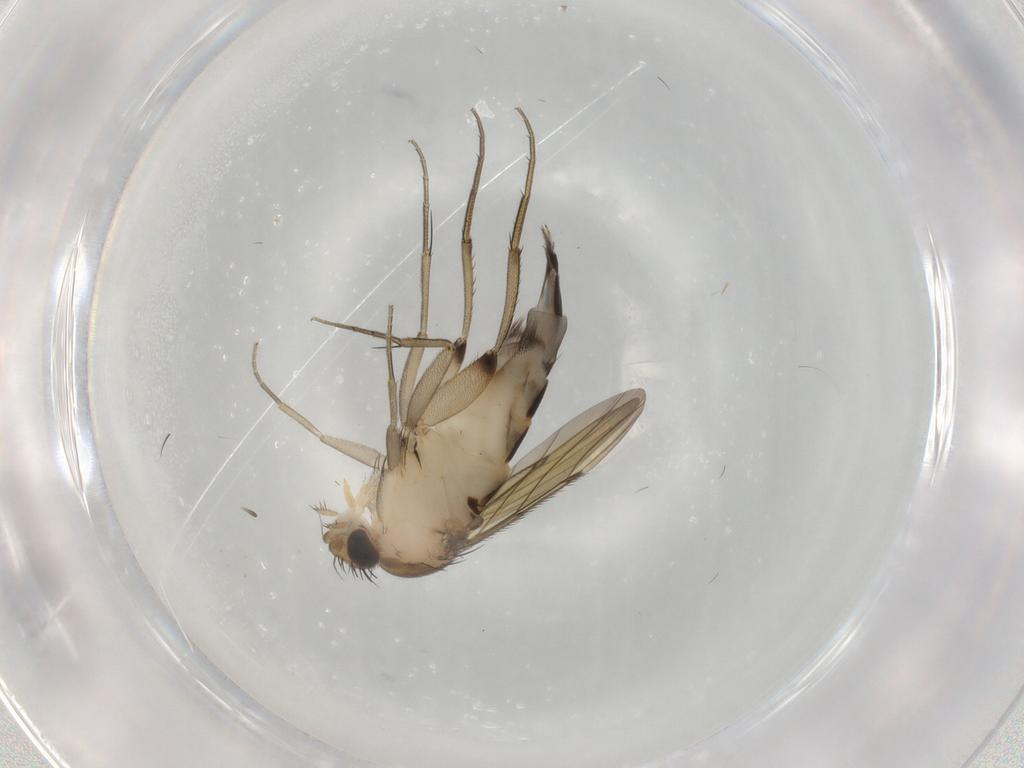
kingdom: Animalia
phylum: Arthropoda
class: Insecta
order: Diptera
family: Phoridae
